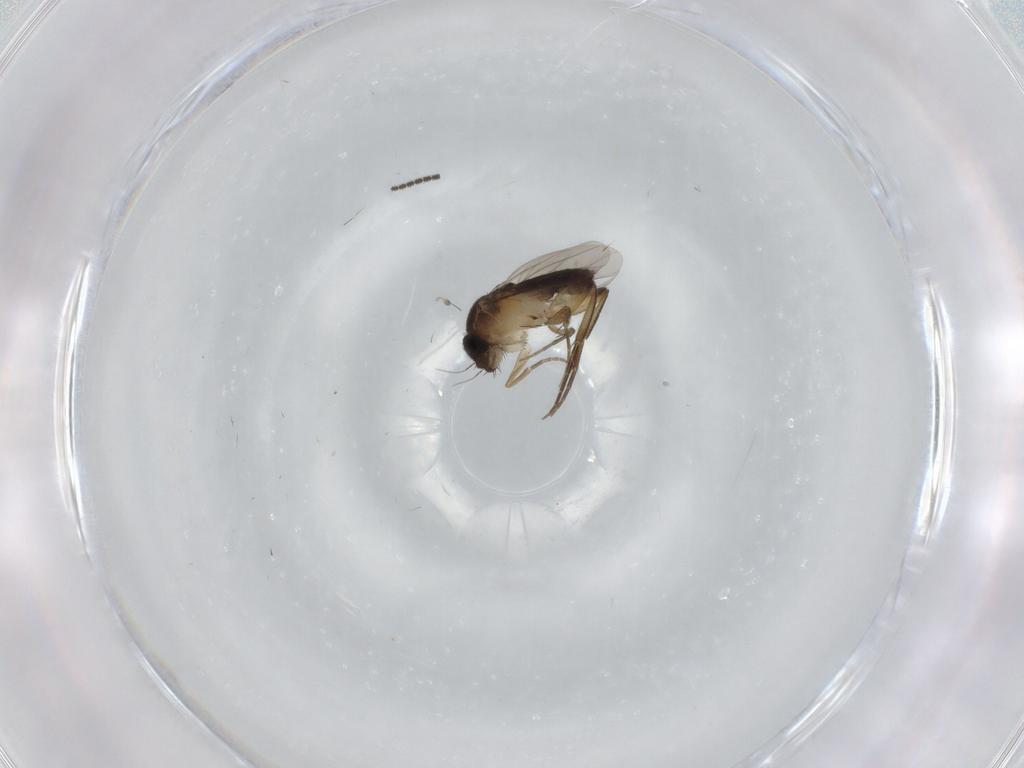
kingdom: Animalia
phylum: Arthropoda
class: Insecta
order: Diptera
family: Phoridae
